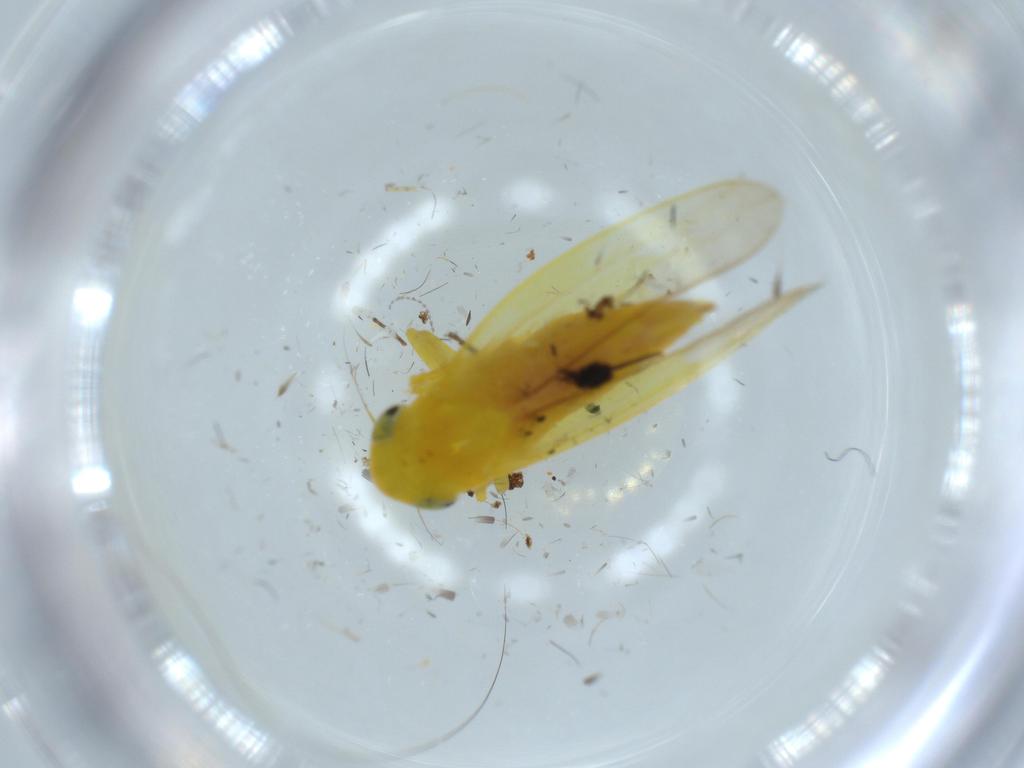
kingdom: Animalia
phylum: Arthropoda
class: Insecta
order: Hemiptera
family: Cicadellidae
